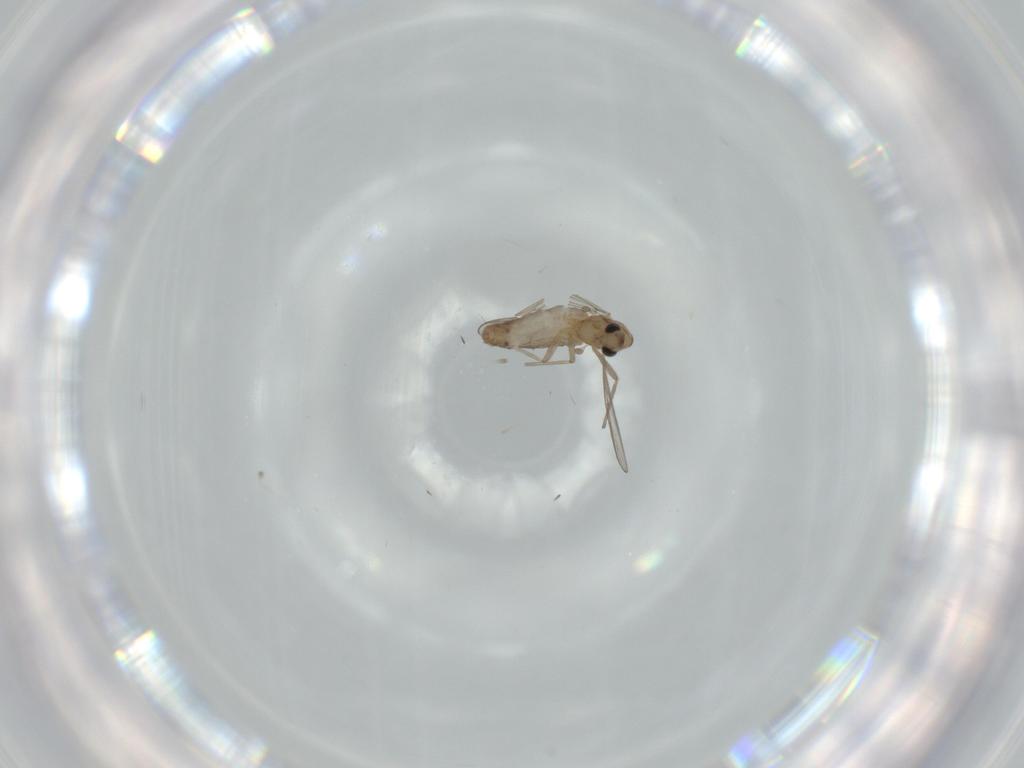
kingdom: Animalia
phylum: Arthropoda
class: Insecta
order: Diptera
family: Chironomidae
